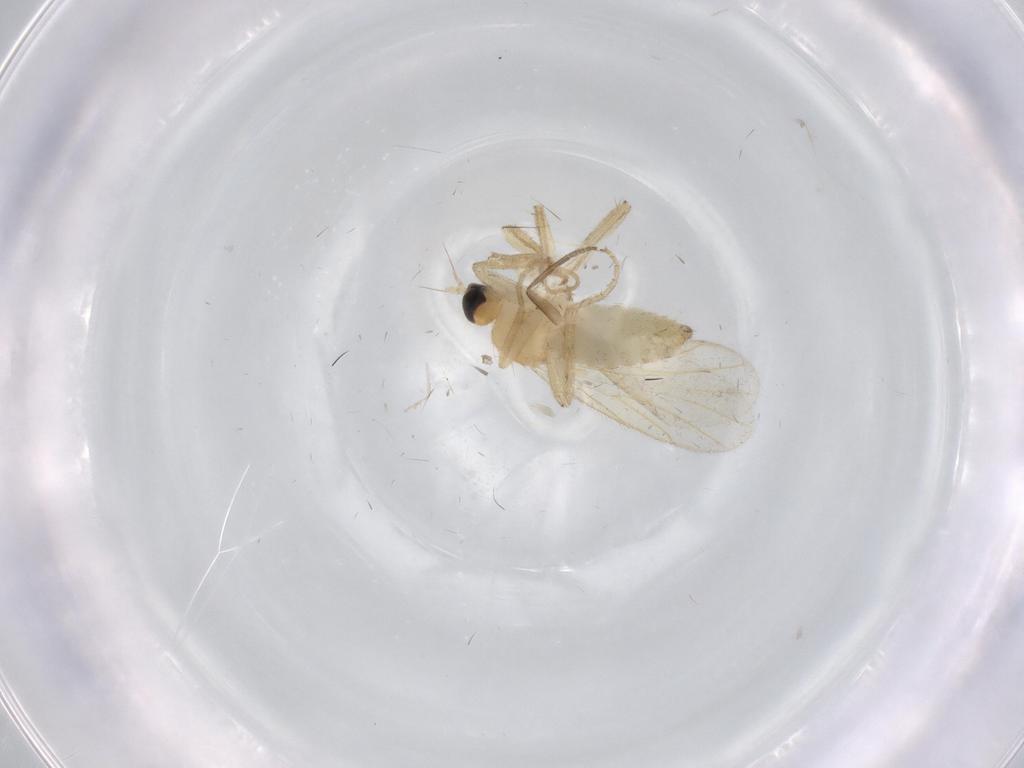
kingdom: Animalia
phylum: Arthropoda
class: Insecta
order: Diptera
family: Hybotidae
